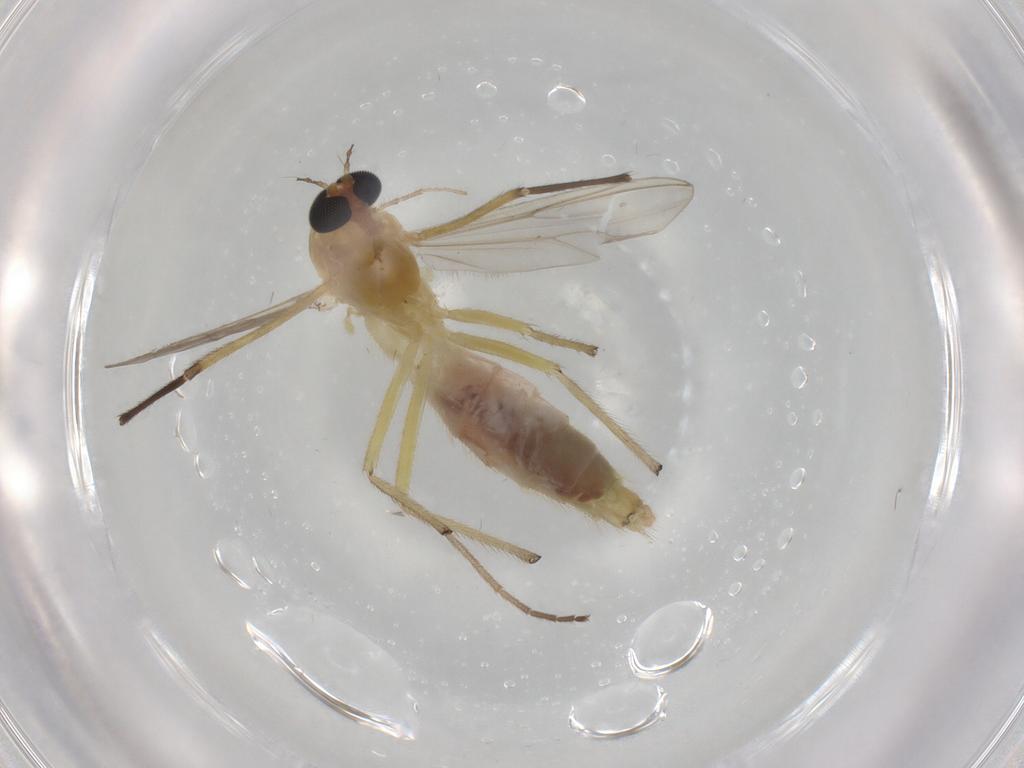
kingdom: Animalia
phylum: Arthropoda
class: Insecta
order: Diptera
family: Chironomidae
